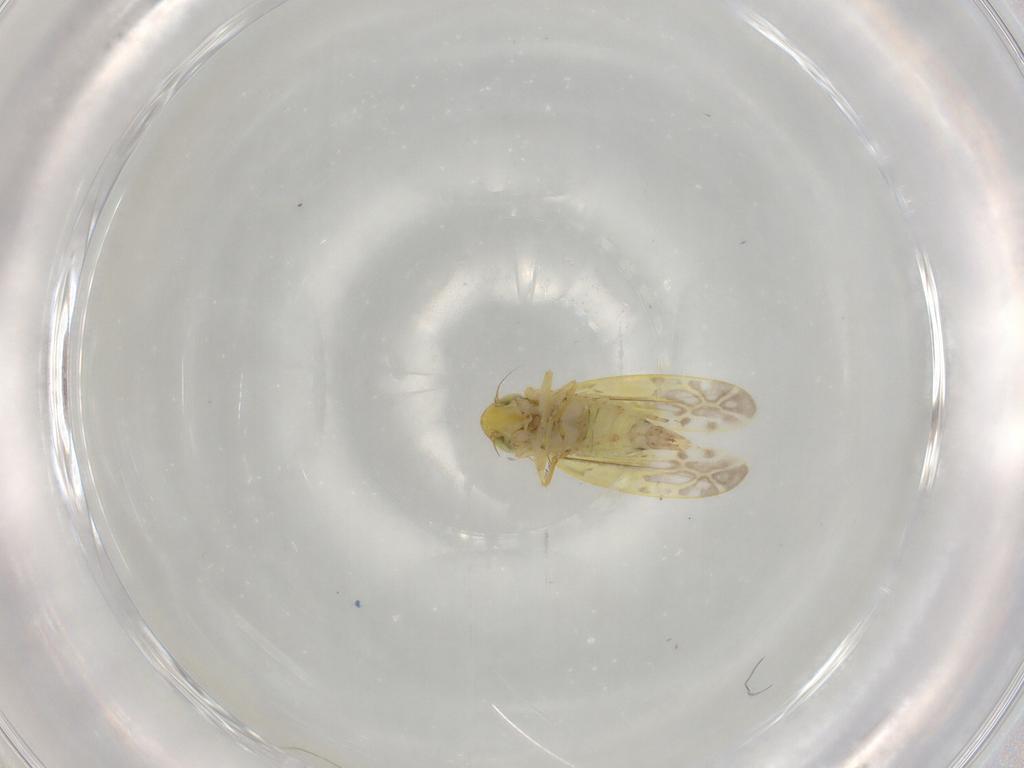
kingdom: Animalia
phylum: Arthropoda
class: Insecta
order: Hemiptera
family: Cicadellidae
